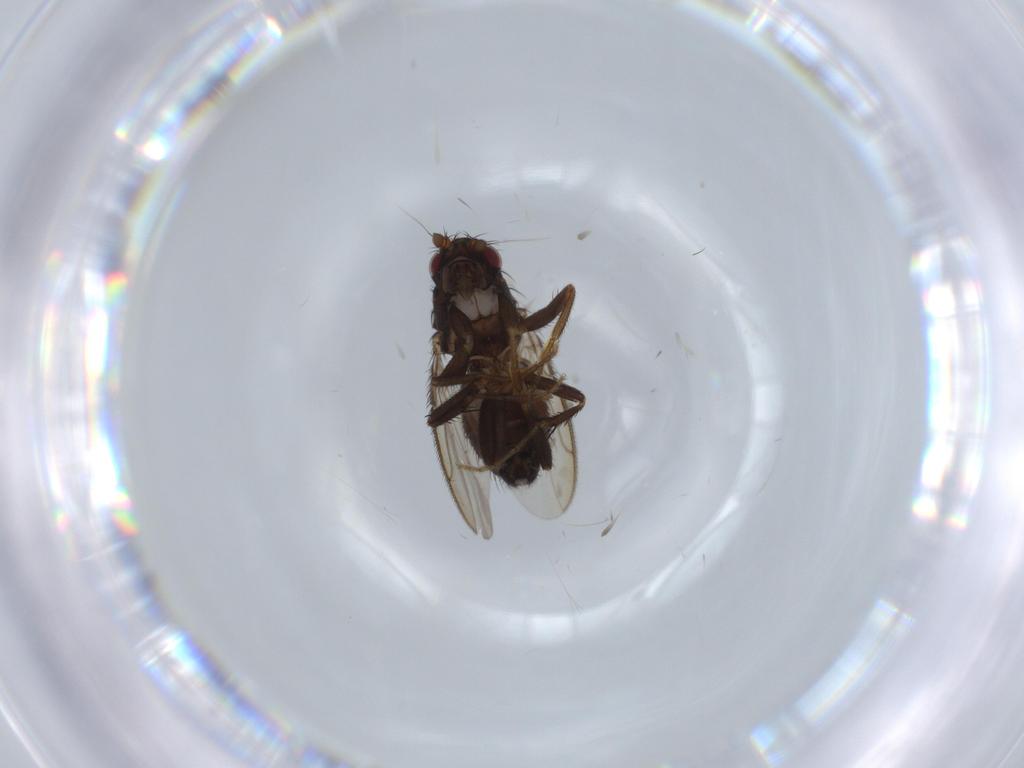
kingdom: Animalia
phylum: Arthropoda
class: Insecta
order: Diptera
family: Sphaeroceridae
